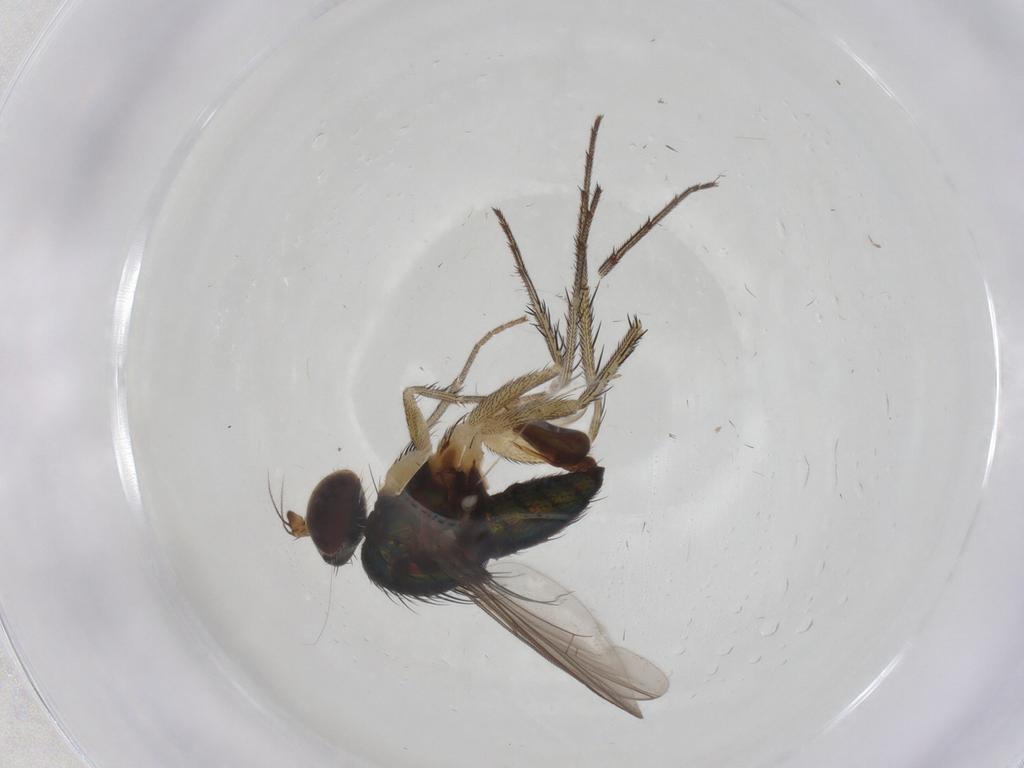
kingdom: Animalia
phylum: Arthropoda
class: Insecta
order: Diptera
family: Dolichopodidae
